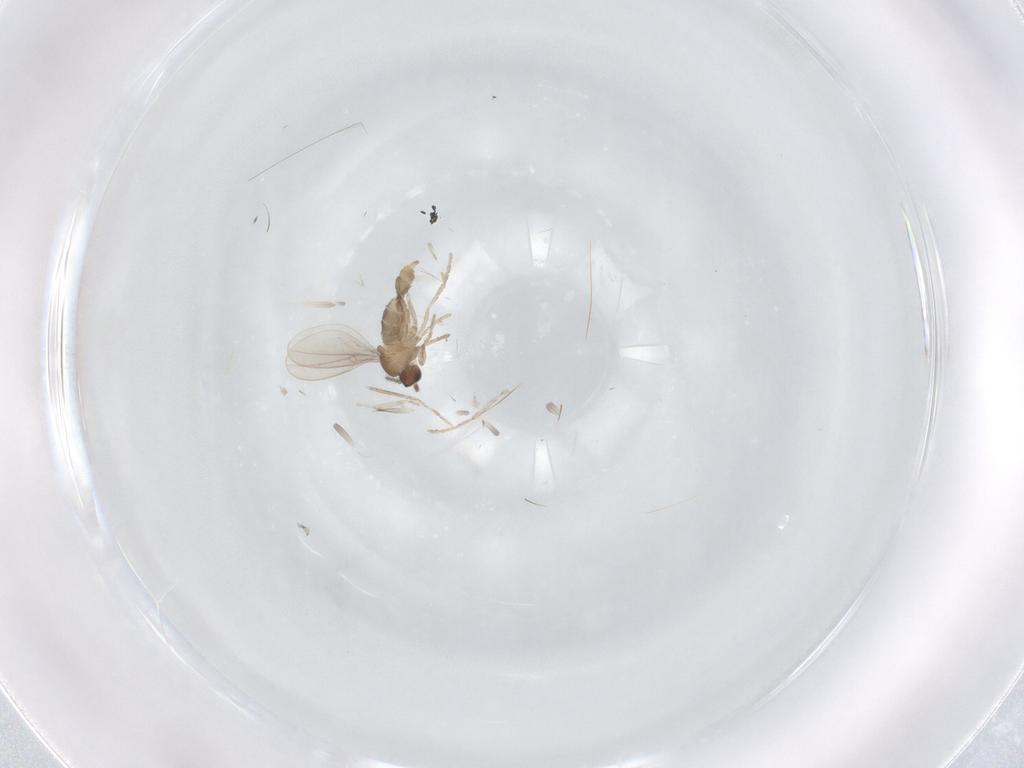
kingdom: Animalia
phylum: Arthropoda
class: Insecta
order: Diptera
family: Cecidomyiidae
